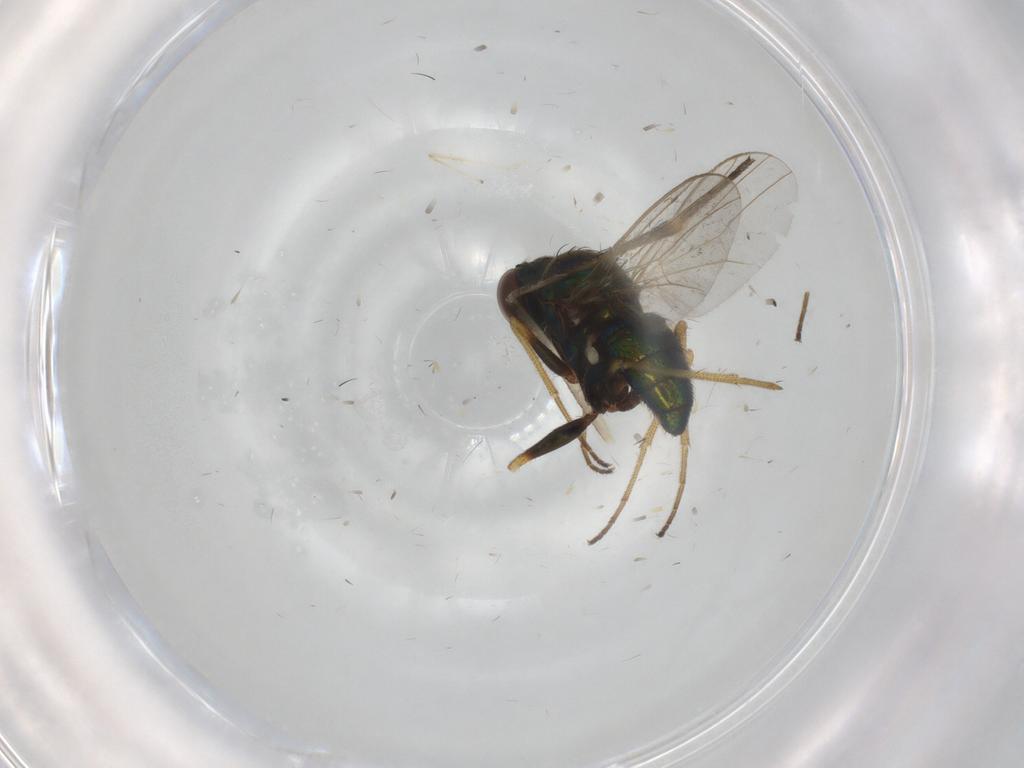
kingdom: Animalia
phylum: Arthropoda
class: Insecta
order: Diptera
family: Dolichopodidae
